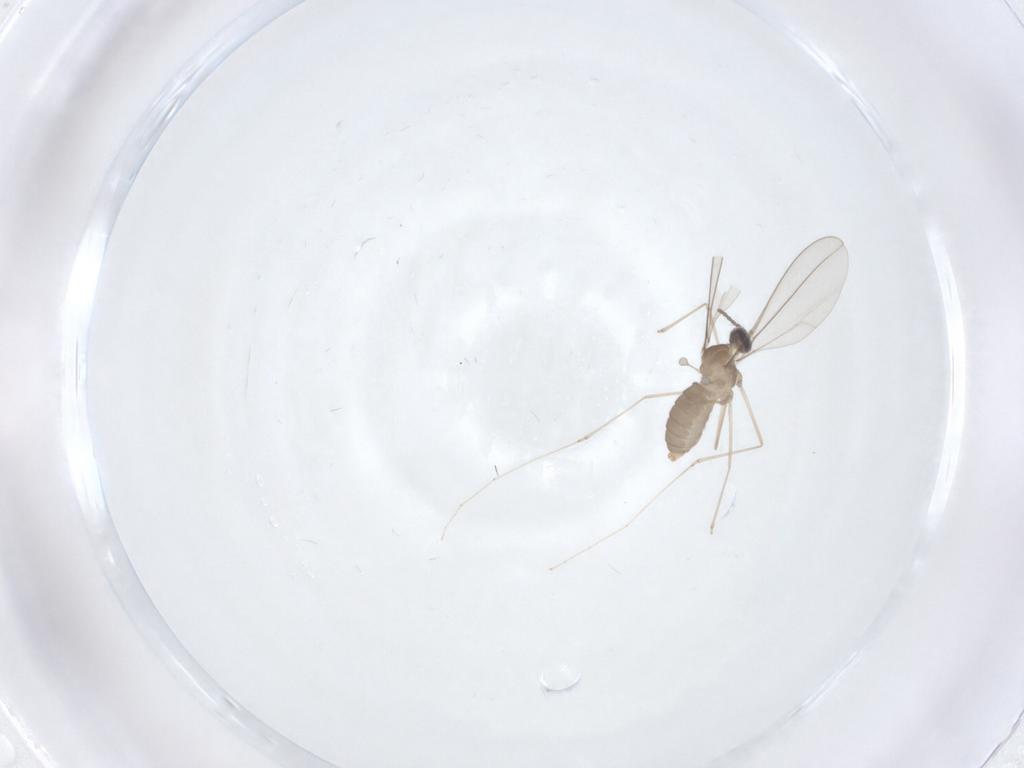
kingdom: Animalia
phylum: Arthropoda
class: Insecta
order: Diptera
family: Cecidomyiidae
